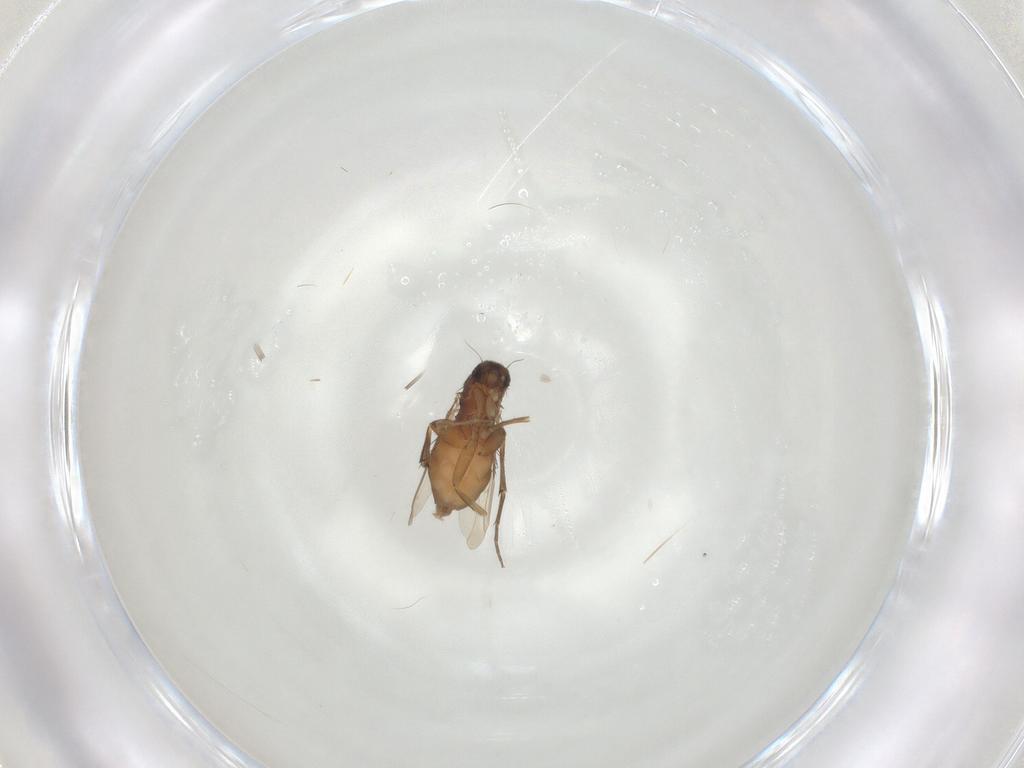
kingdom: Animalia
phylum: Arthropoda
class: Insecta
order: Diptera
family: Phoridae
